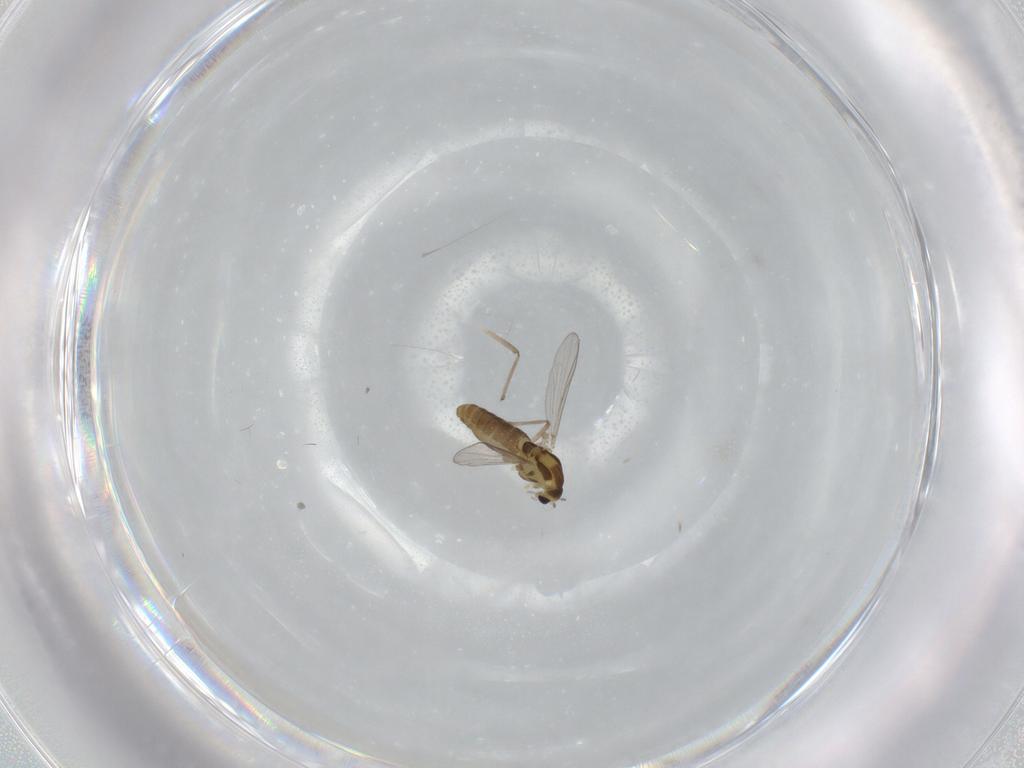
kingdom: Animalia
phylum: Arthropoda
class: Insecta
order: Diptera
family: Chironomidae
